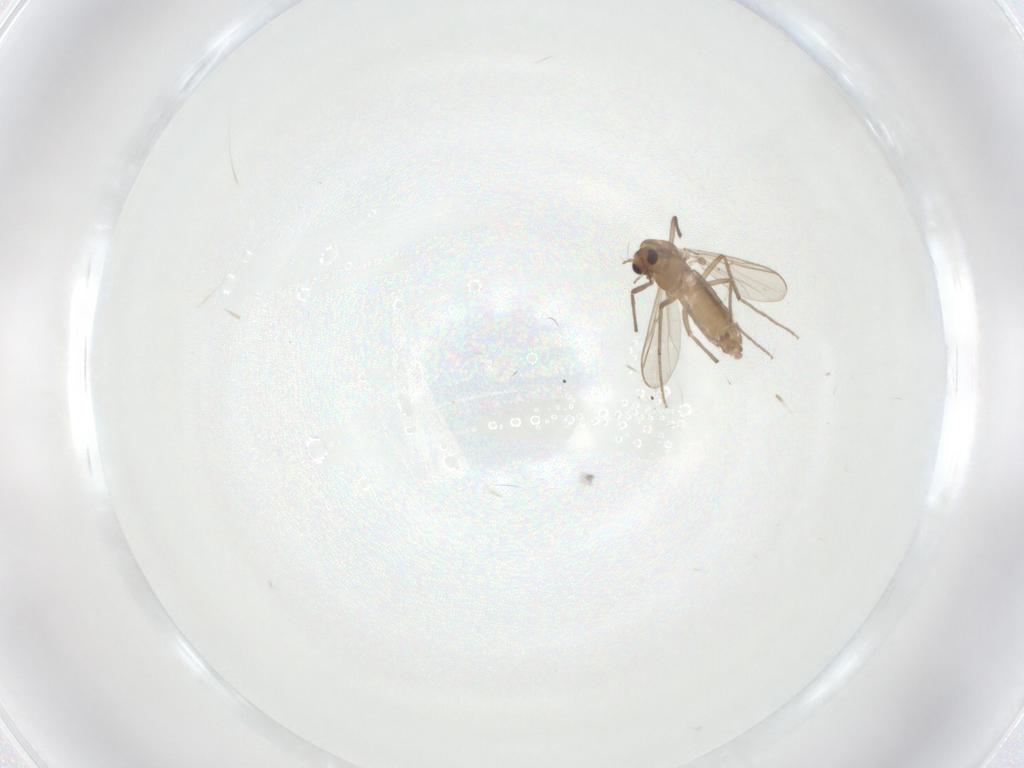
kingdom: Animalia
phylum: Arthropoda
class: Insecta
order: Diptera
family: Chironomidae
